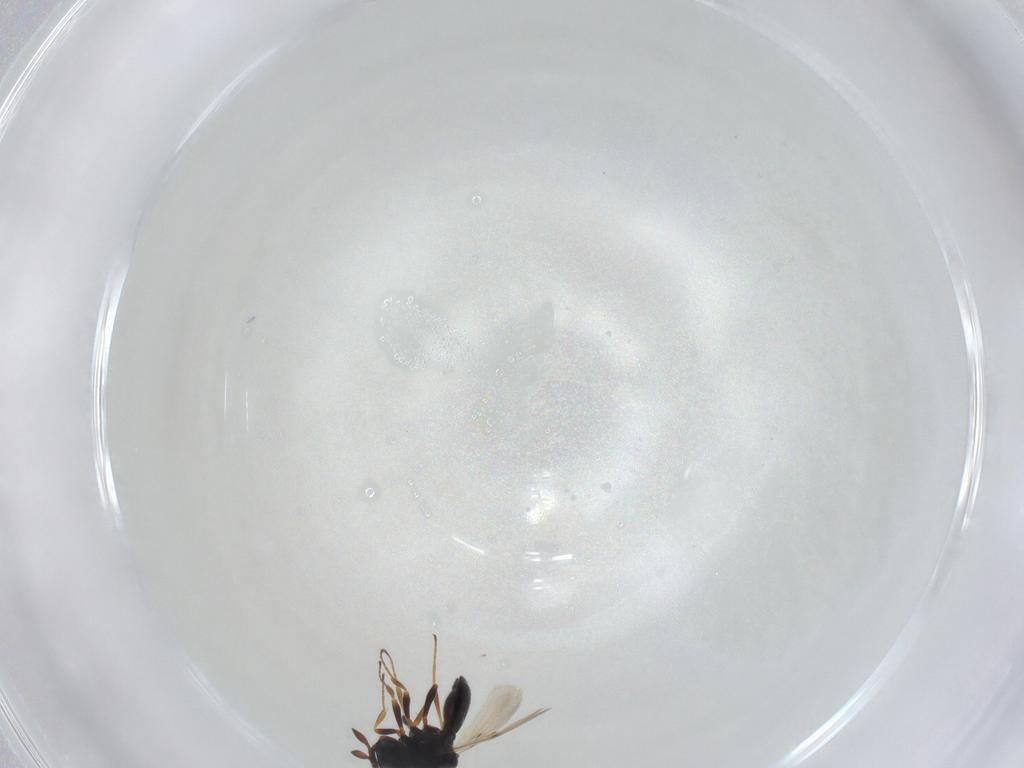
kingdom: Animalia
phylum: Arthropoda
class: Insecta
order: Hymenoptera
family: Scelionidae
